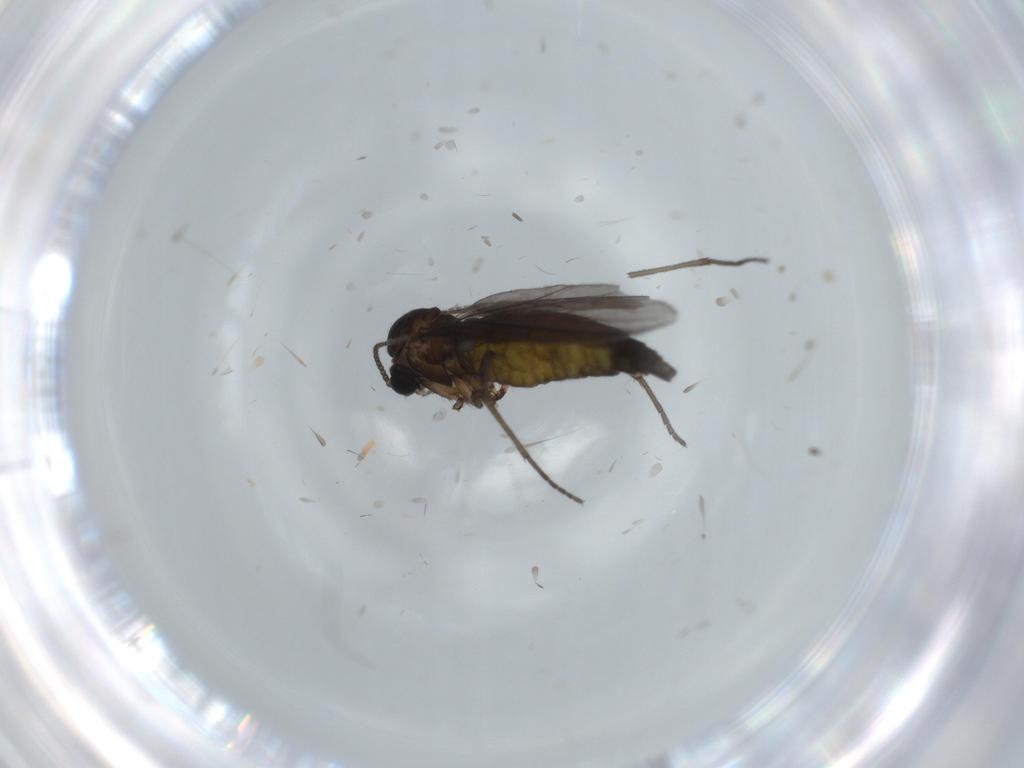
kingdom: Animalia
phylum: Arthropoda
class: Insecta
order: Diptera
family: Sciaridae
